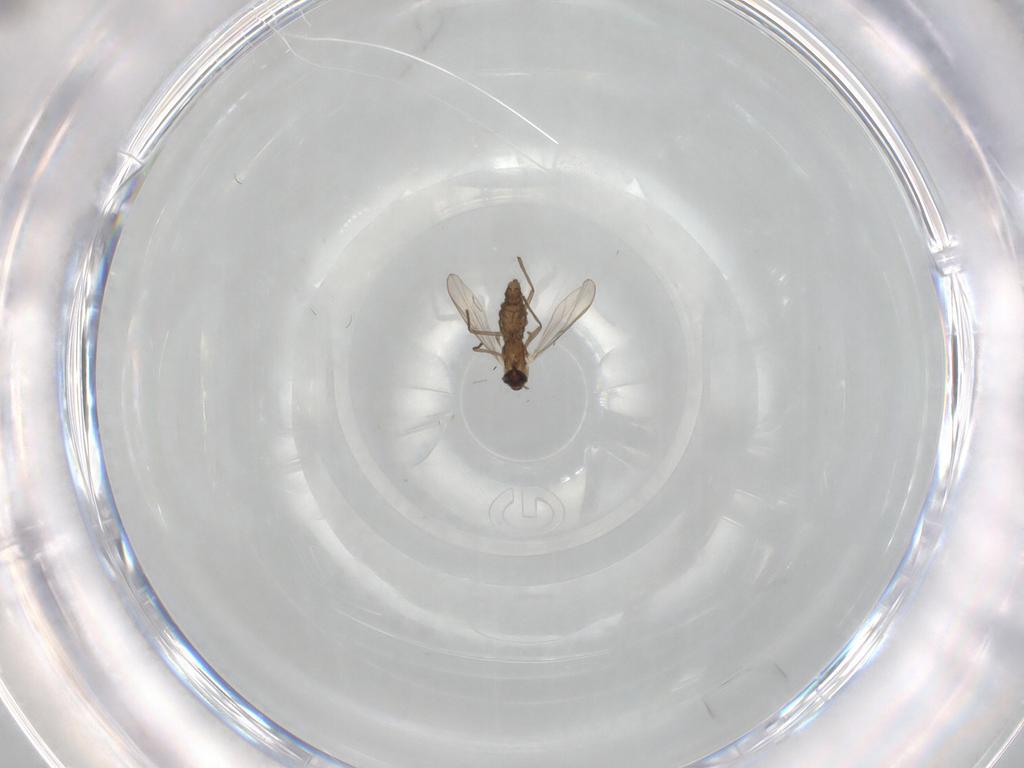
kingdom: Animalia
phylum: Arthropoda
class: Insecta
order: Diptera
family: Chironomidae
